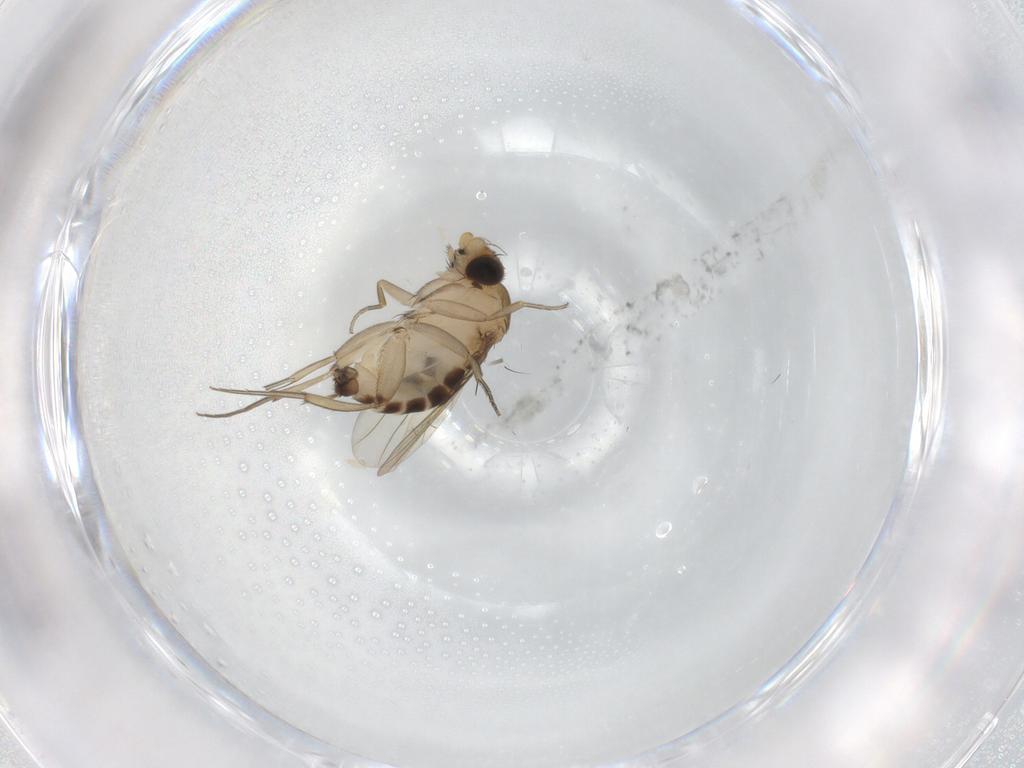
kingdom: Animalia
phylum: Arthropoda
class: Insecta
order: Diptera
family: Phoridae
